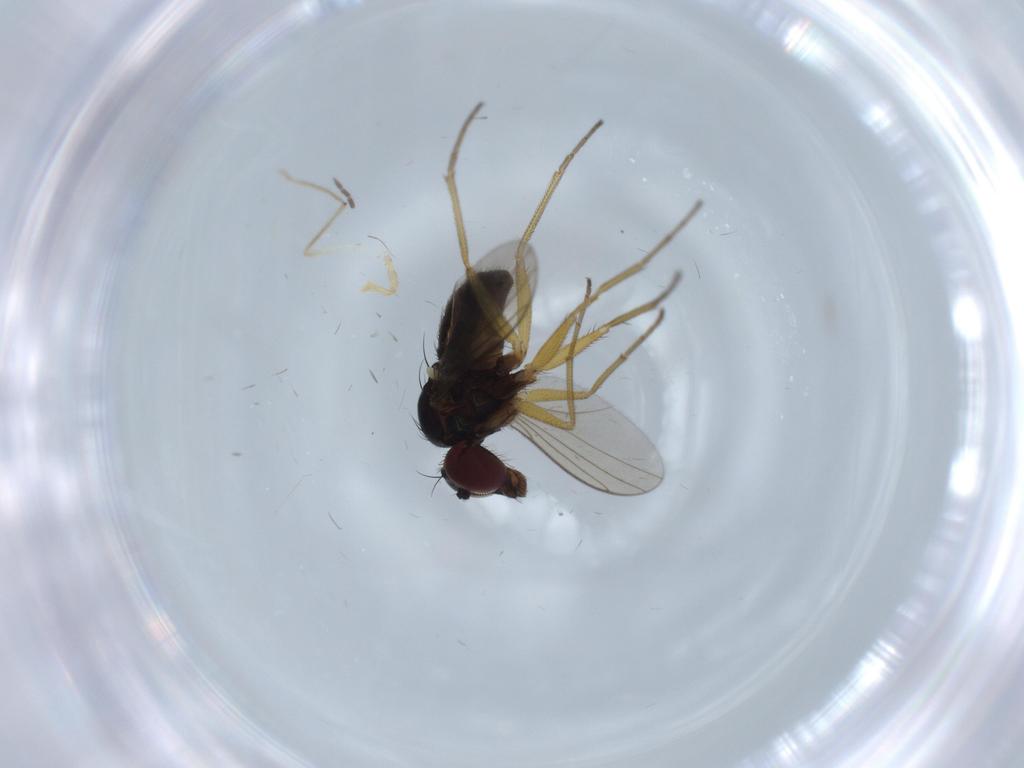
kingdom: Animalia
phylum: Arthropoda
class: Insecta
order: Diptera
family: Dolichopodidae
